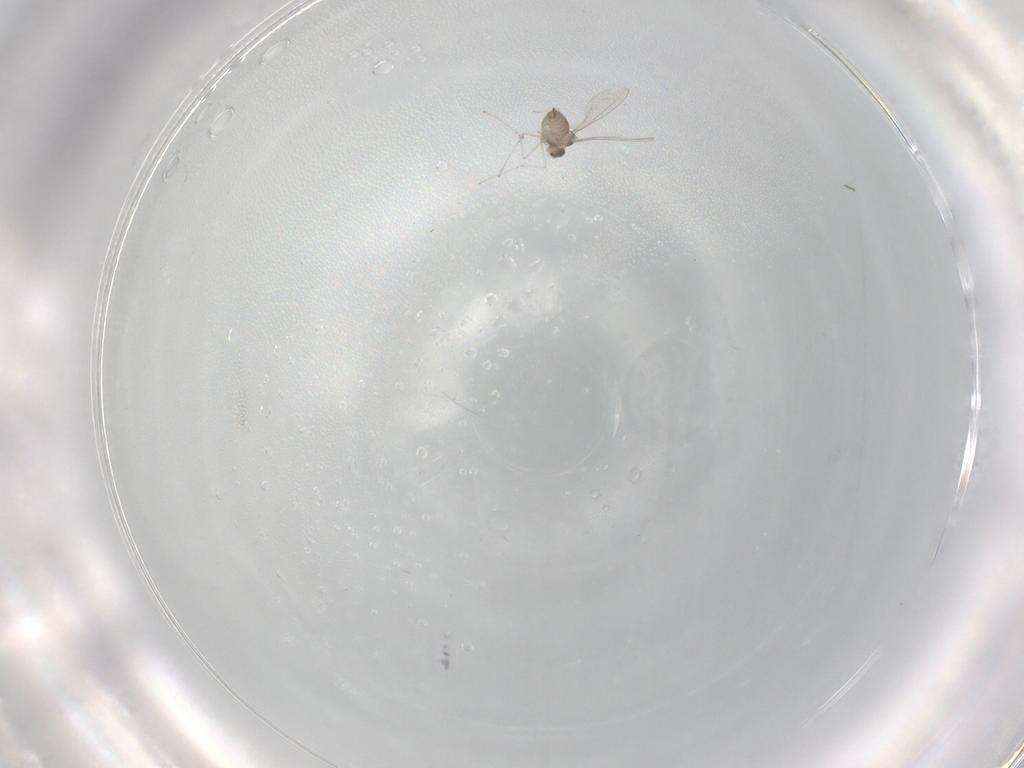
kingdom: Animalia
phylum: Arthropoda
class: Insecta
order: Diptera
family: Cecidomyiidae
